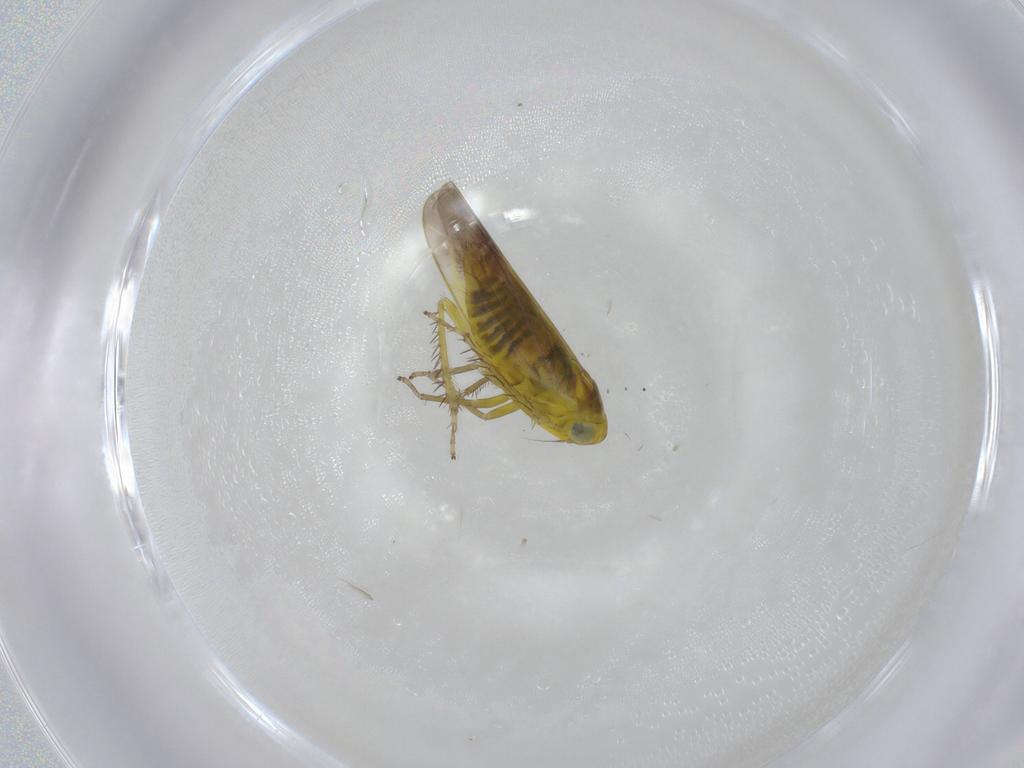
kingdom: Animalia
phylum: Arthropoda
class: Insecta
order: Hemiptera
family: Cicadellidae
